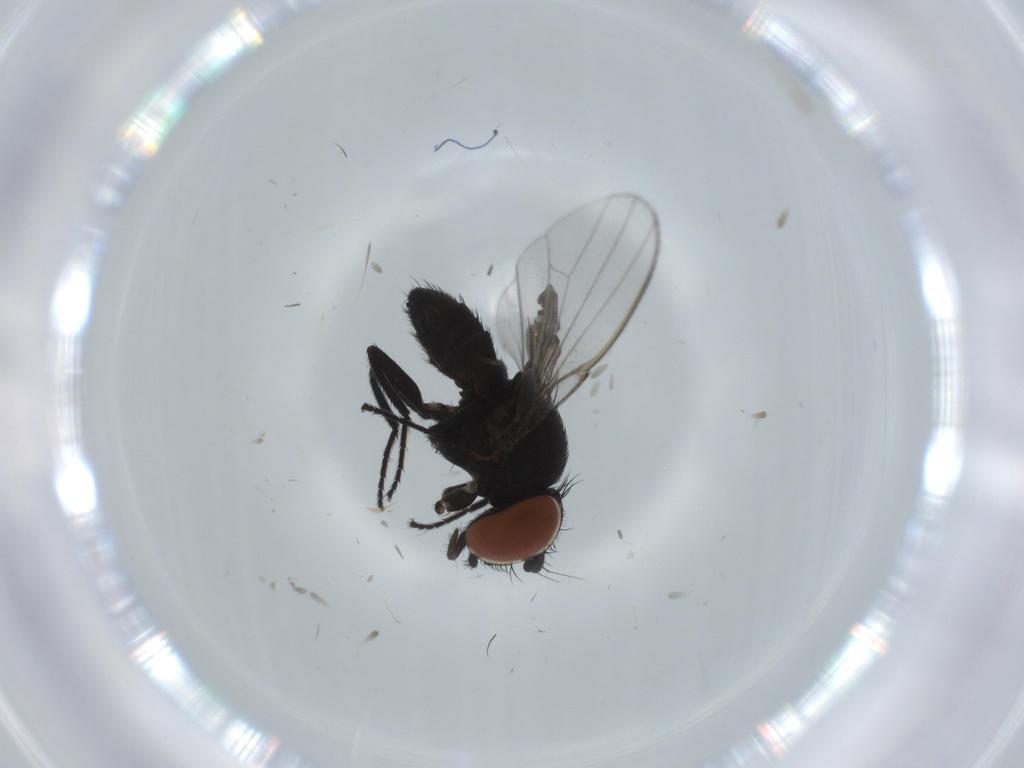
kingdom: Animalia
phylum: Arthropoda
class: Insecta
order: Diptera
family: Milichiidae
